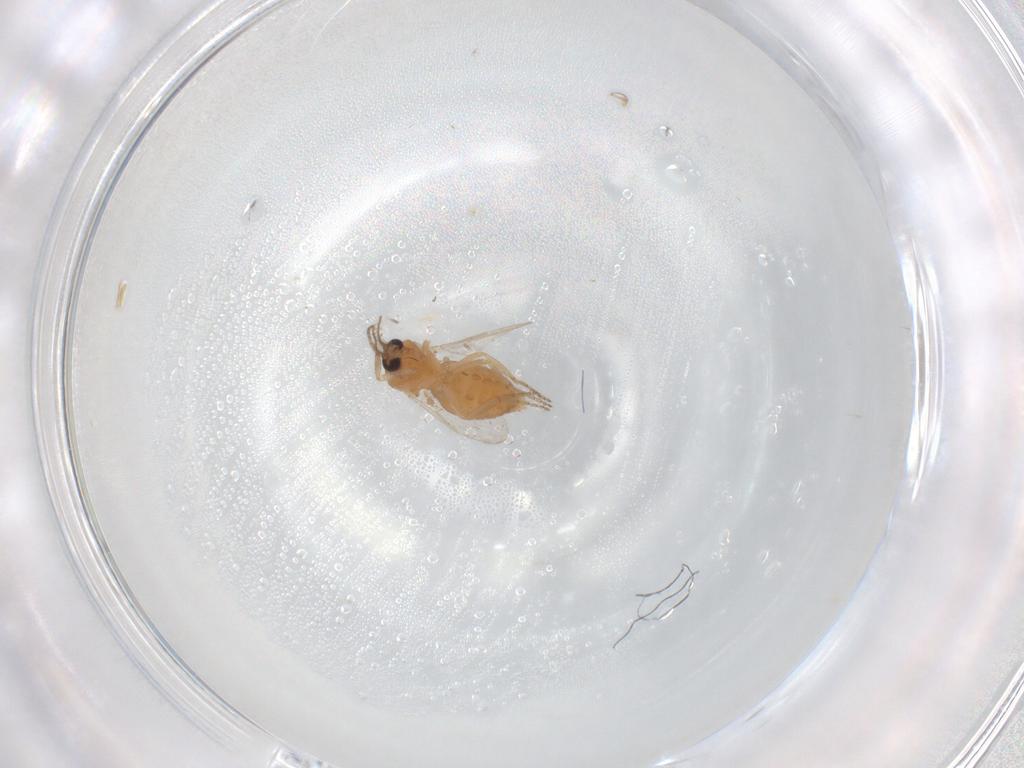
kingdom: Animalia
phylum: Arthropoda
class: Insecta
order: Diptera
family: Ceratopogonidae
